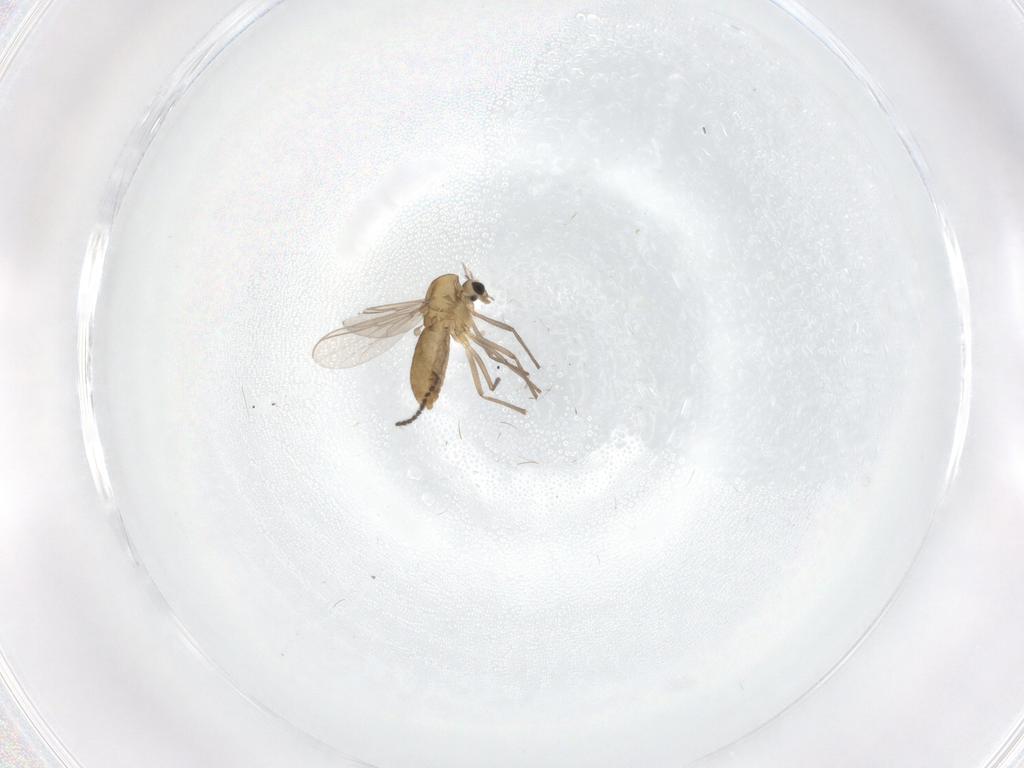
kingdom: Animalia
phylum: Arthropoda
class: Insecta
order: Diptera
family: Chironomidae
